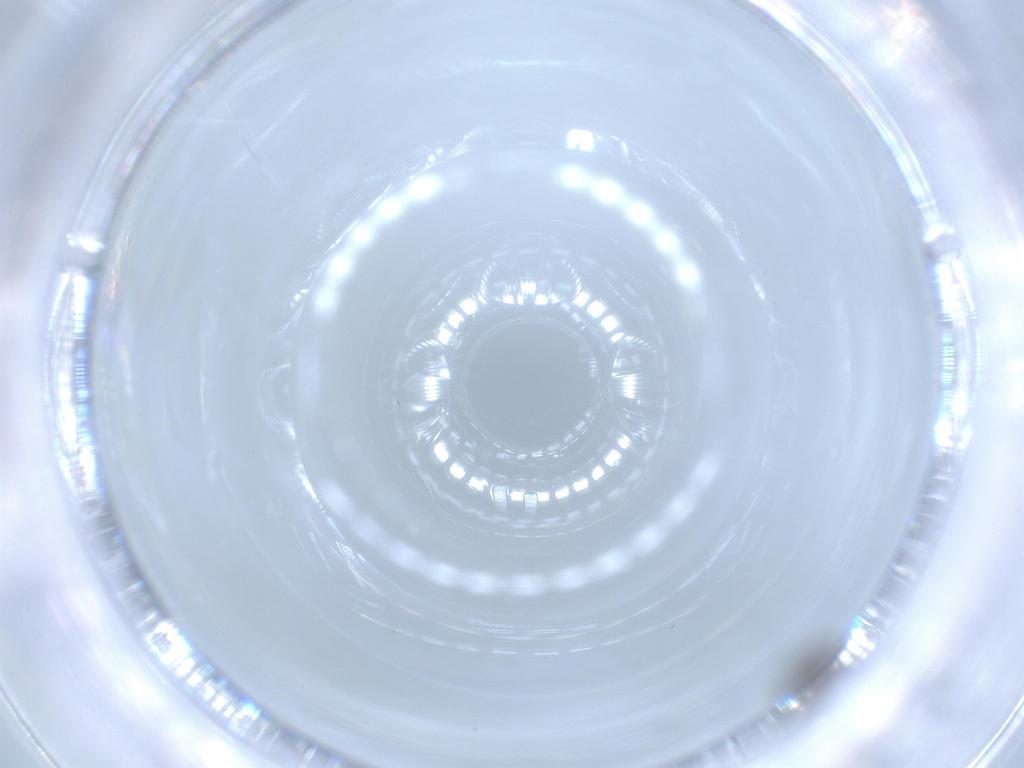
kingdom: Animalia
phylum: Arthropoda
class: Insecta
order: Diptera
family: Phoridae
